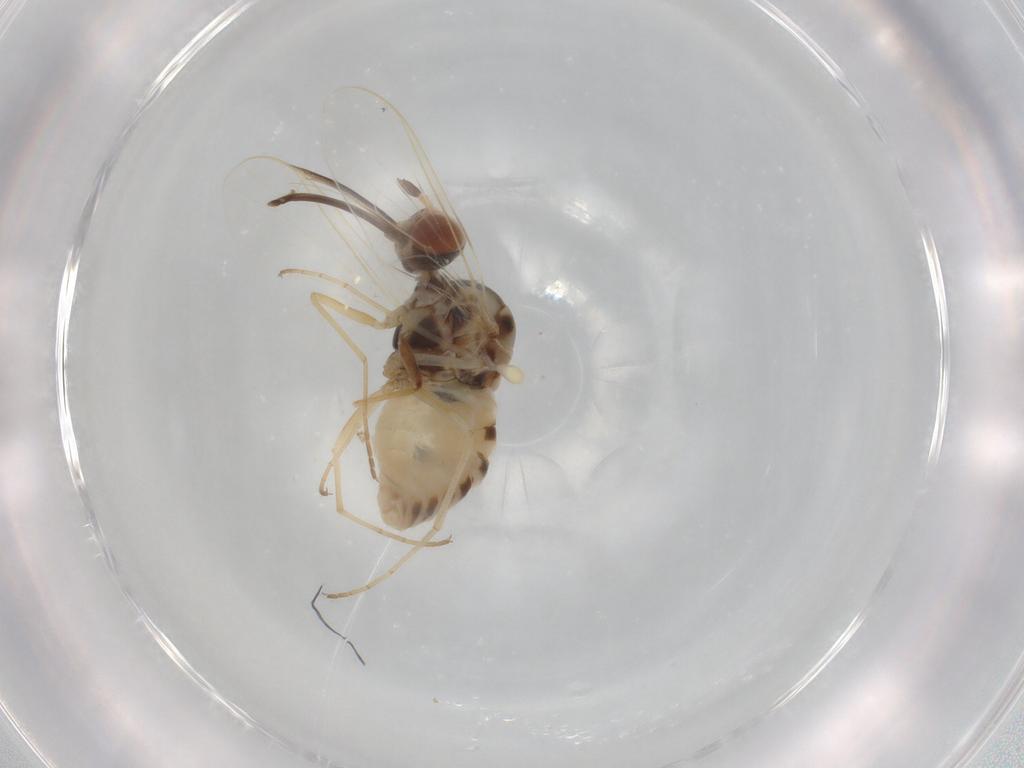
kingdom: Animalia
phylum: Arthropoda
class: Insecta
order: Diptera
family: Bombyliidae
